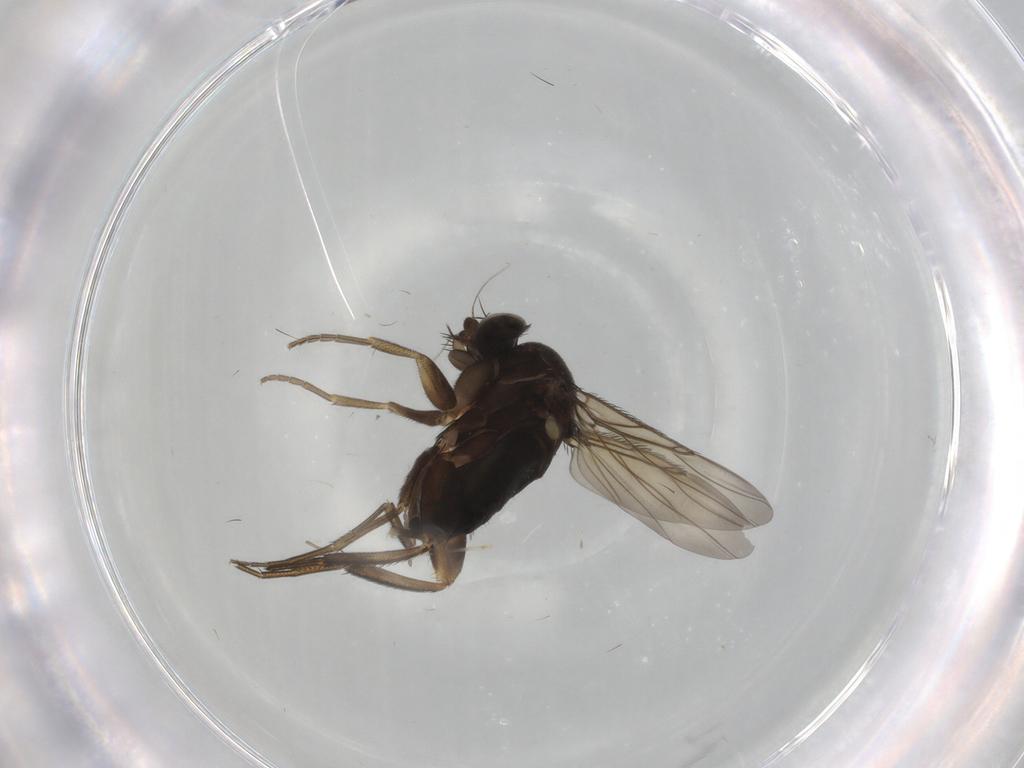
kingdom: Animalia
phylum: Arthropoda
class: Insecta
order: Diptera
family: Phoridae
